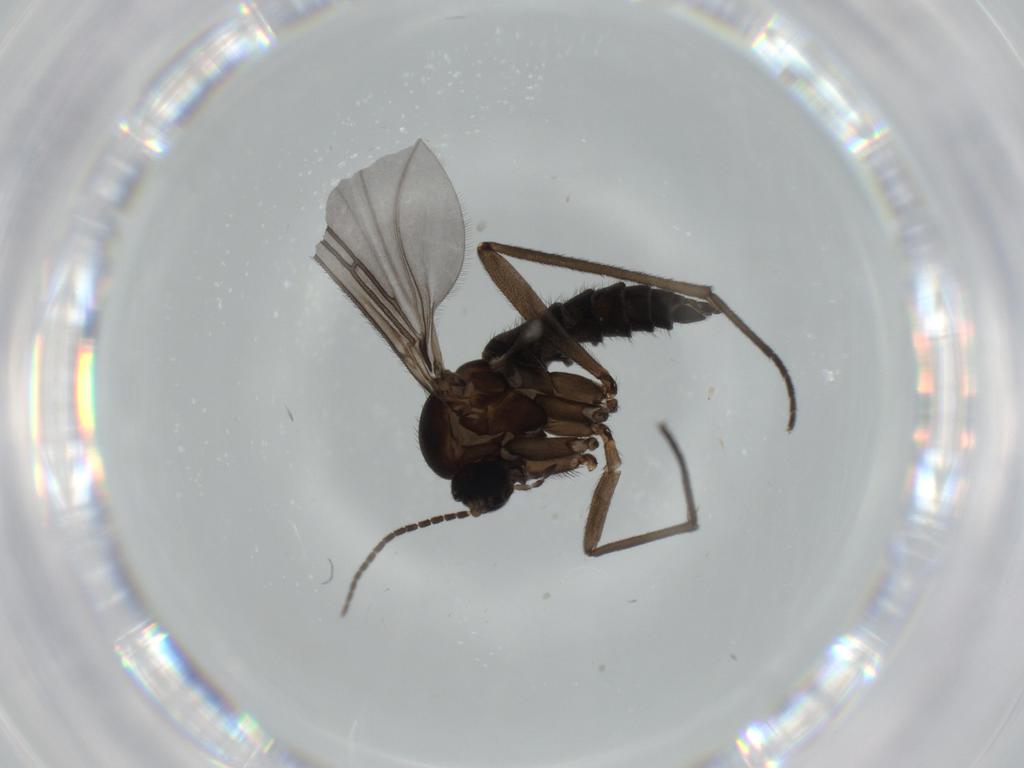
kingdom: Animalia
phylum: Arthropoda
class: Insecta
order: Diptera
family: Sciaridae
